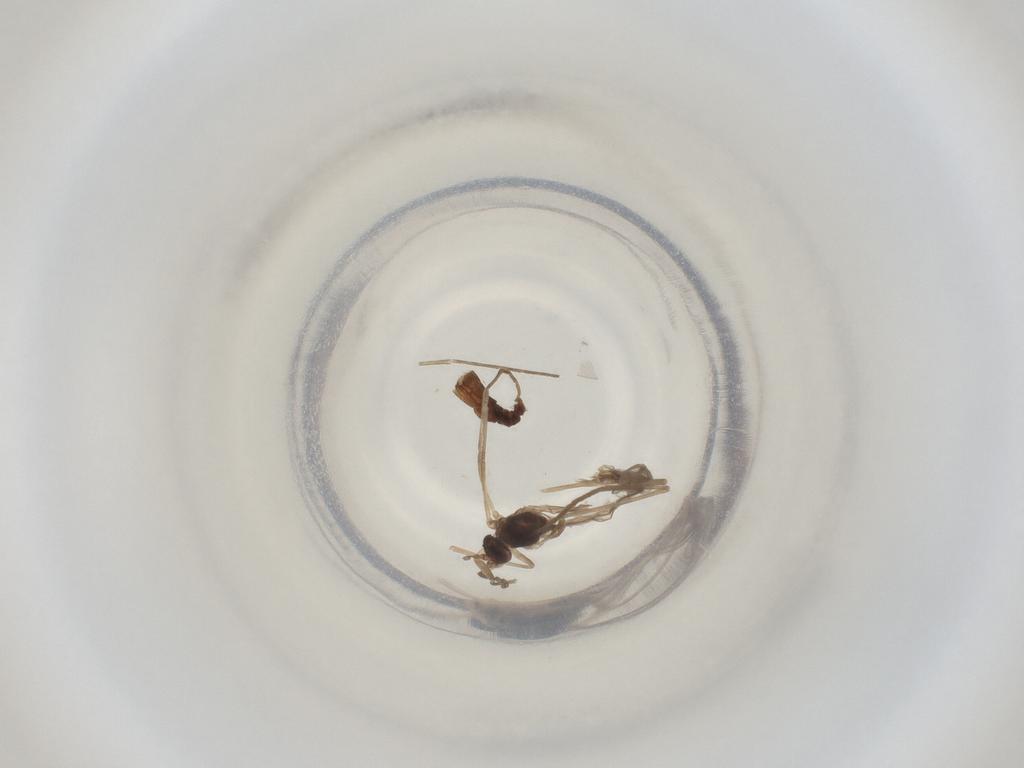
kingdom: Animalia
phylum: Arthropoda
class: Insecta
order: Diptera
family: Cecidomyiidae
